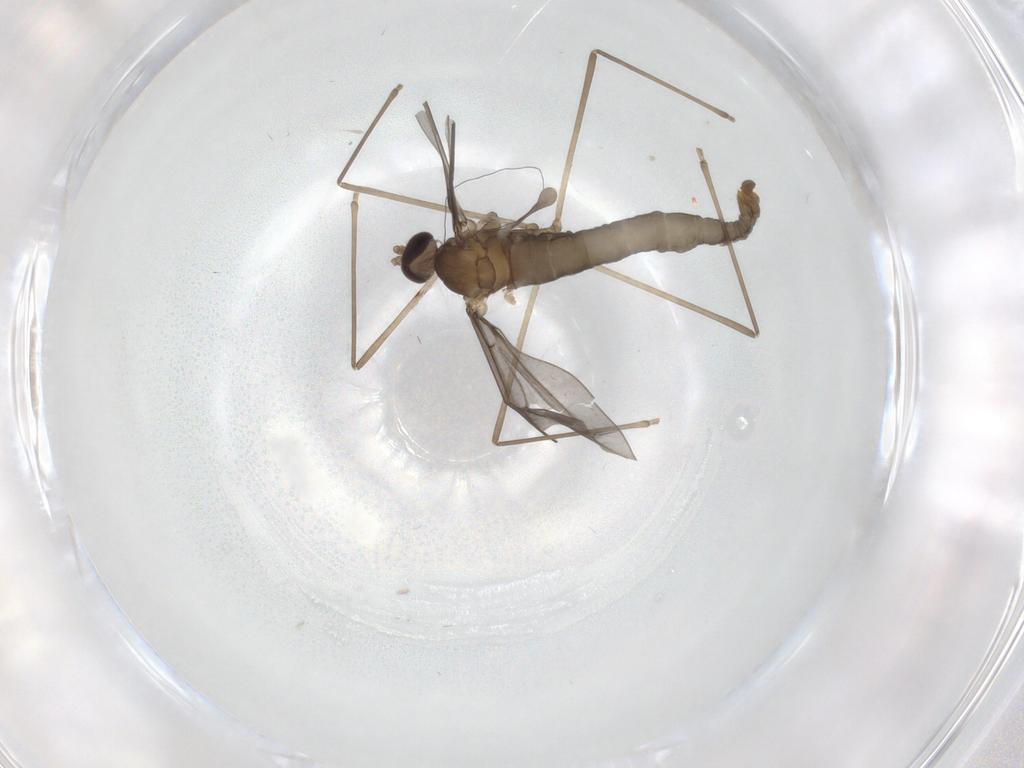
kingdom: Animalia
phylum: Arthropoda
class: Insecta
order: Diptera
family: Cecidomyiidae
